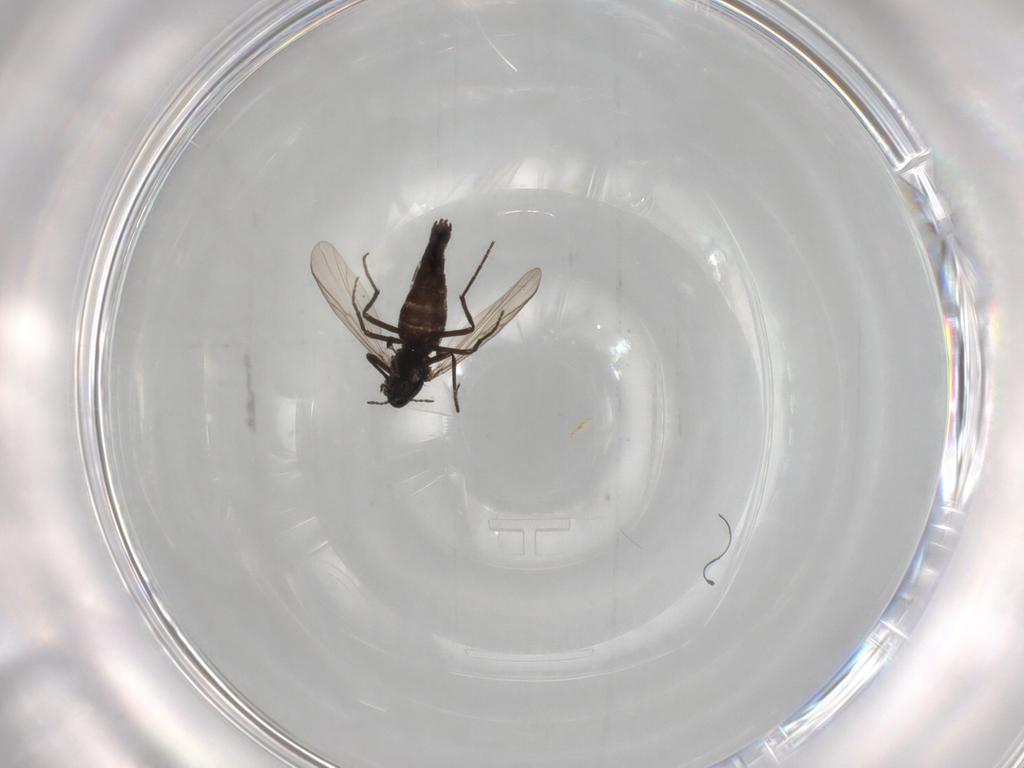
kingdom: Animalia
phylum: Arthropoda
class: Insecta
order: Diptera
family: Chironomidae
